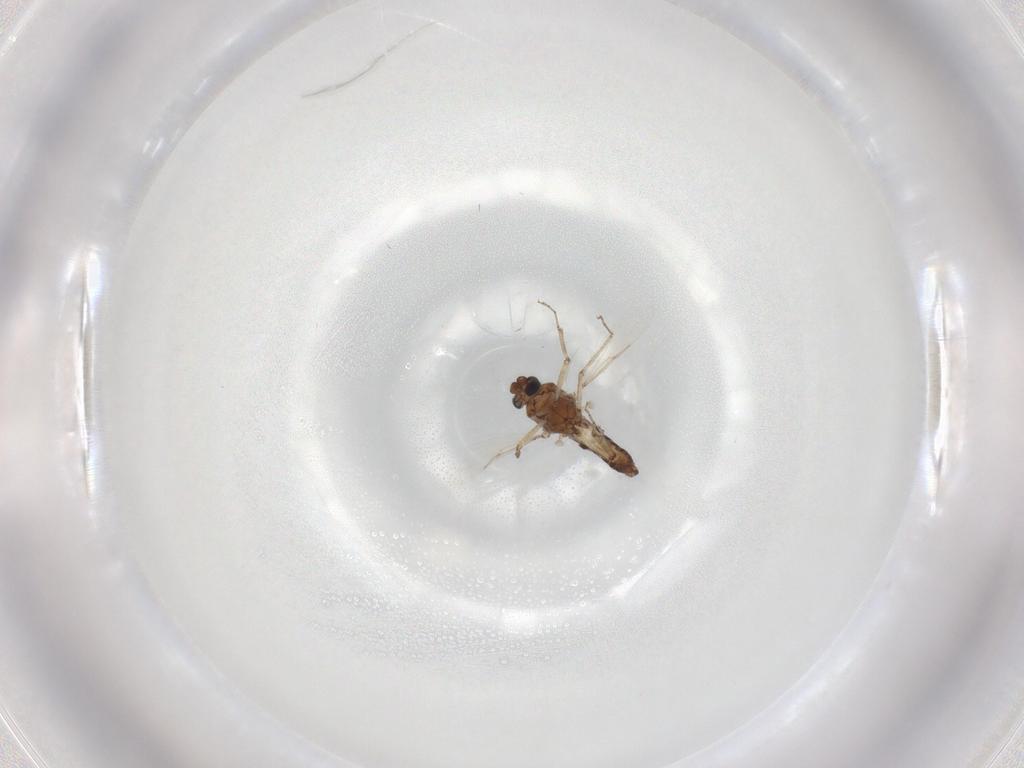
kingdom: Animalia
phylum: Arthropoda
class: Insecta
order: Diptera
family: Ceratopogonidae
